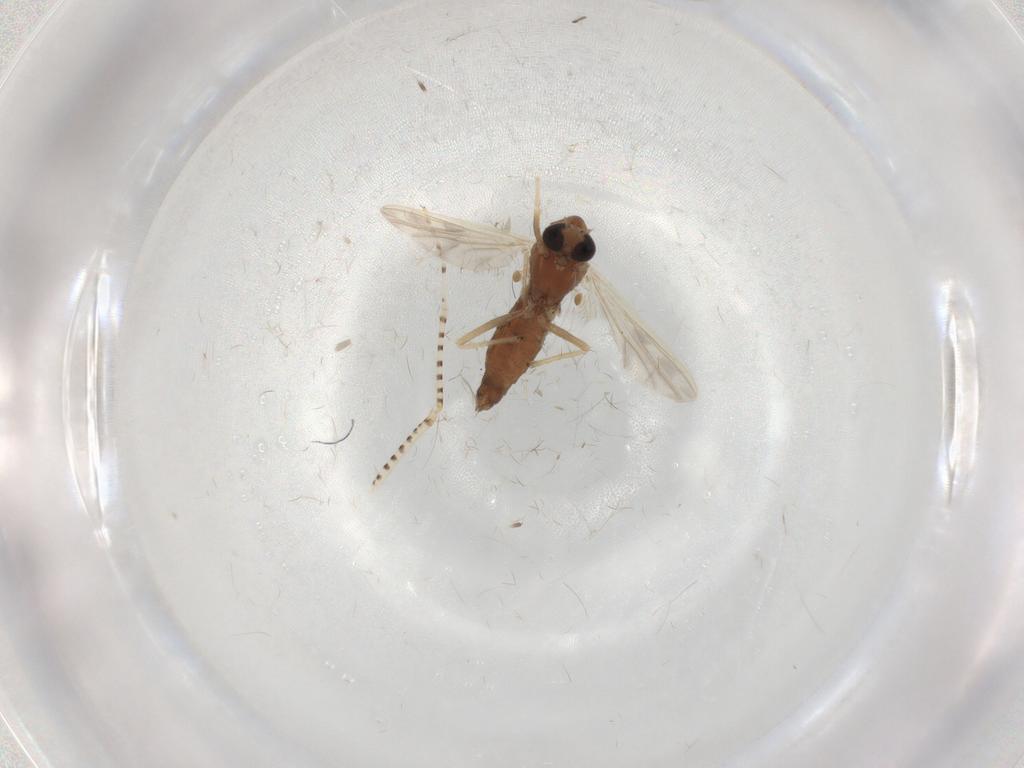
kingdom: Animalia
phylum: Arthropoda
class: Insecta
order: Diptera
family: Chironomidae
